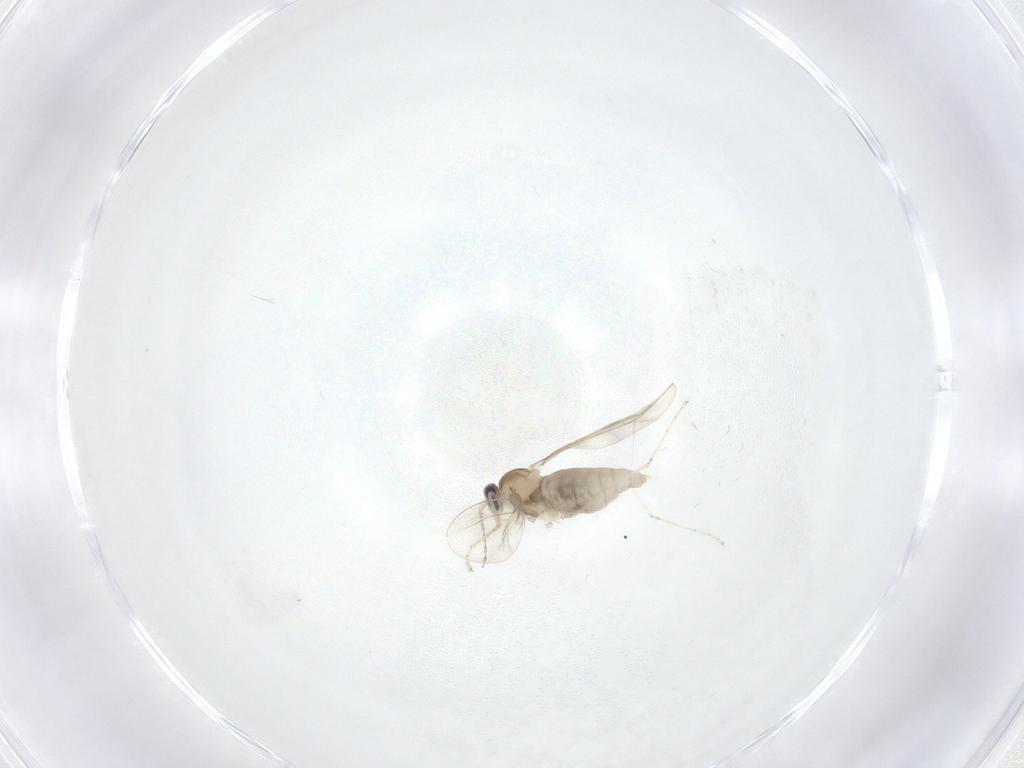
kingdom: Animalia
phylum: Arthropoda
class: Insecta
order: Diptera
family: Cecidomyiidae
